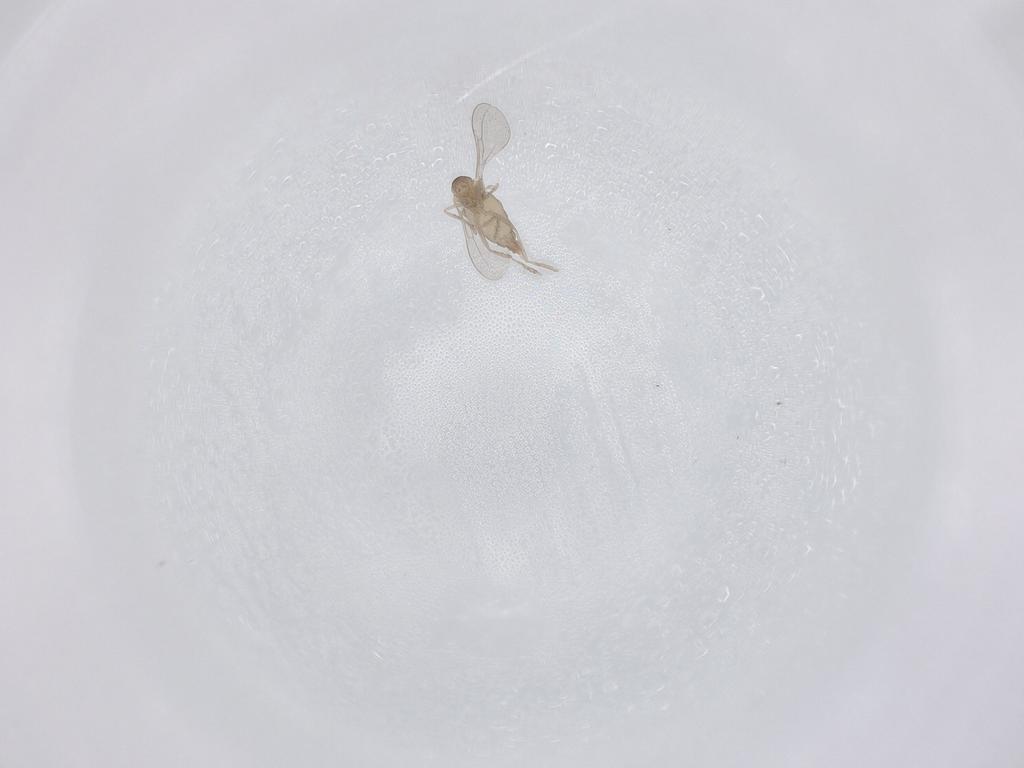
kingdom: Animalia
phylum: Arthropoda
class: Insecta
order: Diptera
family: Cecidomyiidae
